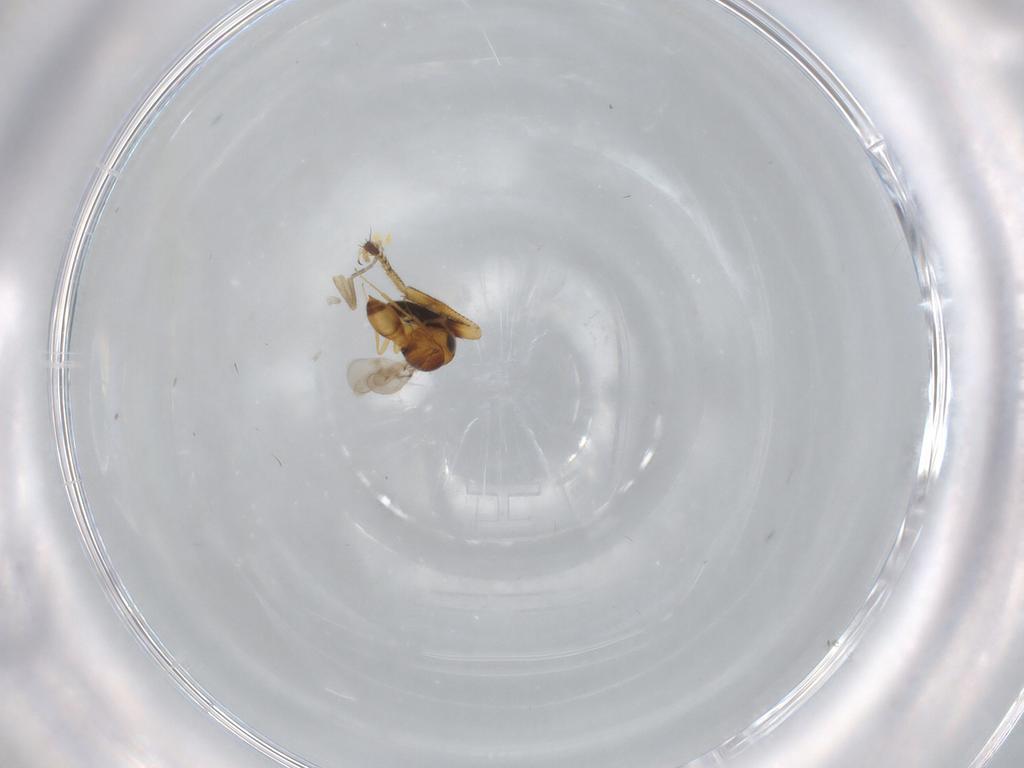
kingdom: Animalia
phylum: Arthropoda
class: Insecta
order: Hymenoptera
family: Scelionidae
